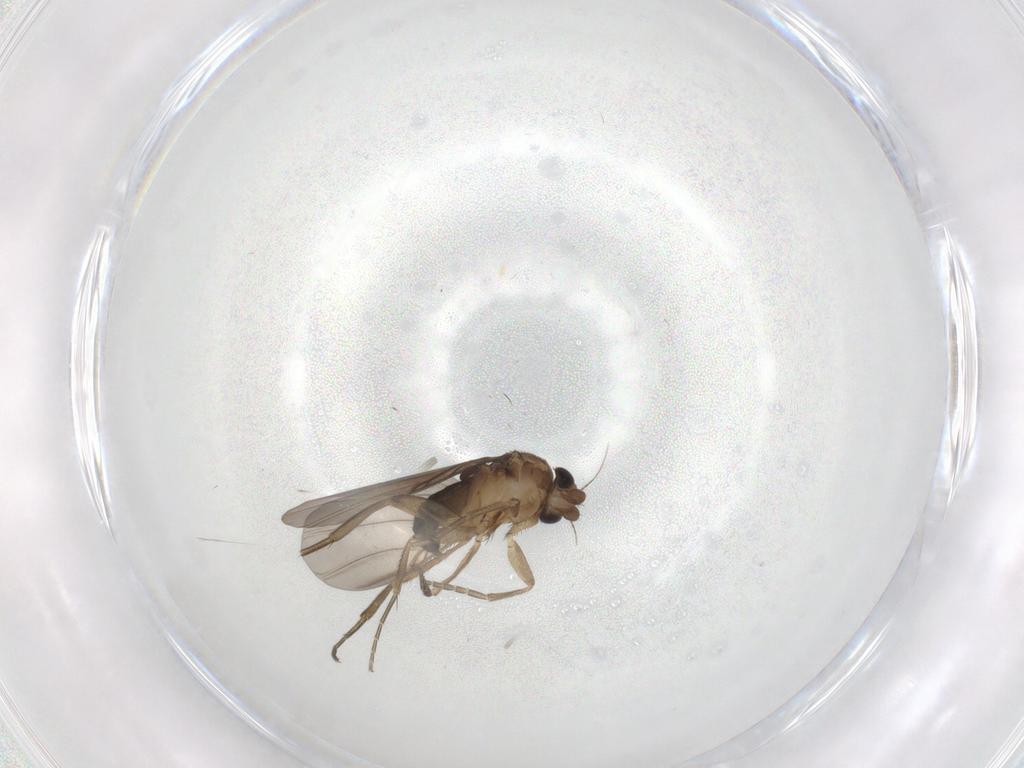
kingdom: Animalia
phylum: Arthropoda
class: Insecta
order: Diptera
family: Phoridae
